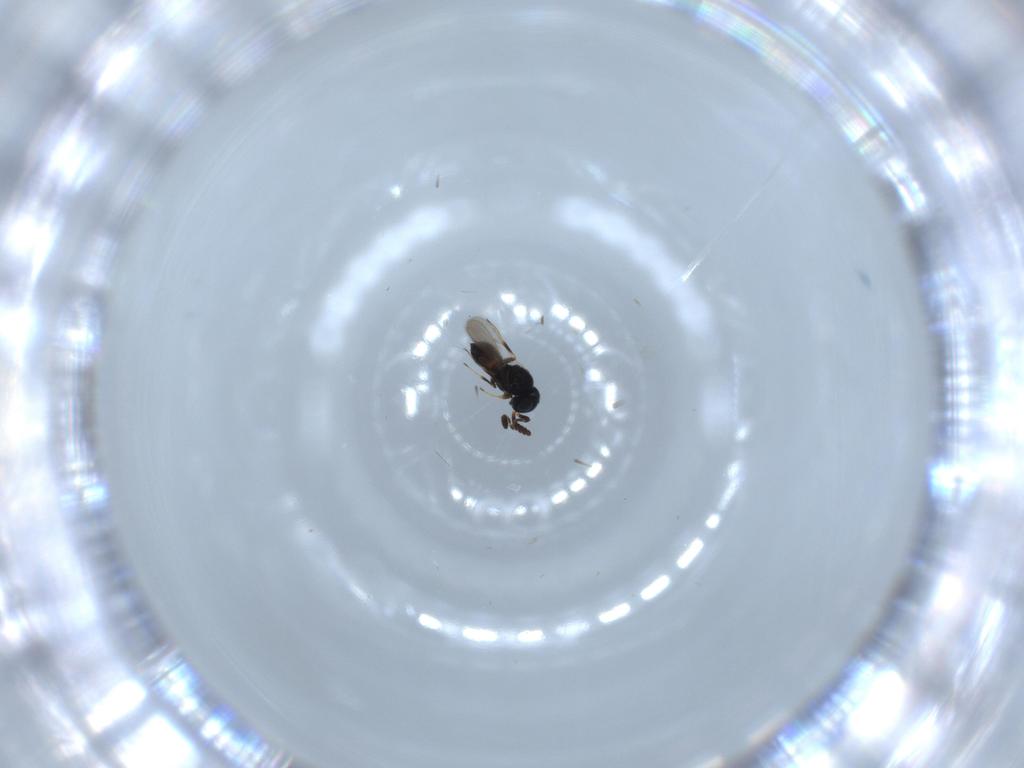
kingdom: Animalia
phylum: Arthropoda
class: Insecta
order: Hymenoptera
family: Scelionidae
